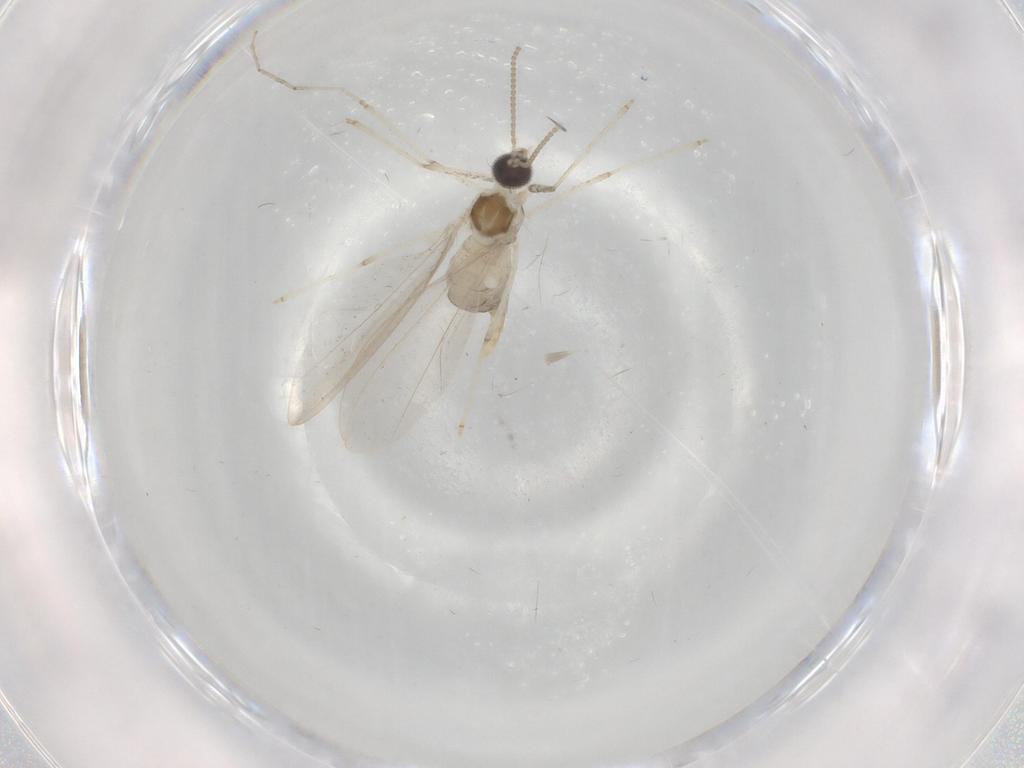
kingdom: Animalia
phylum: Arthropoda
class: Insecta
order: Diptera
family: Cecidomyiidae
